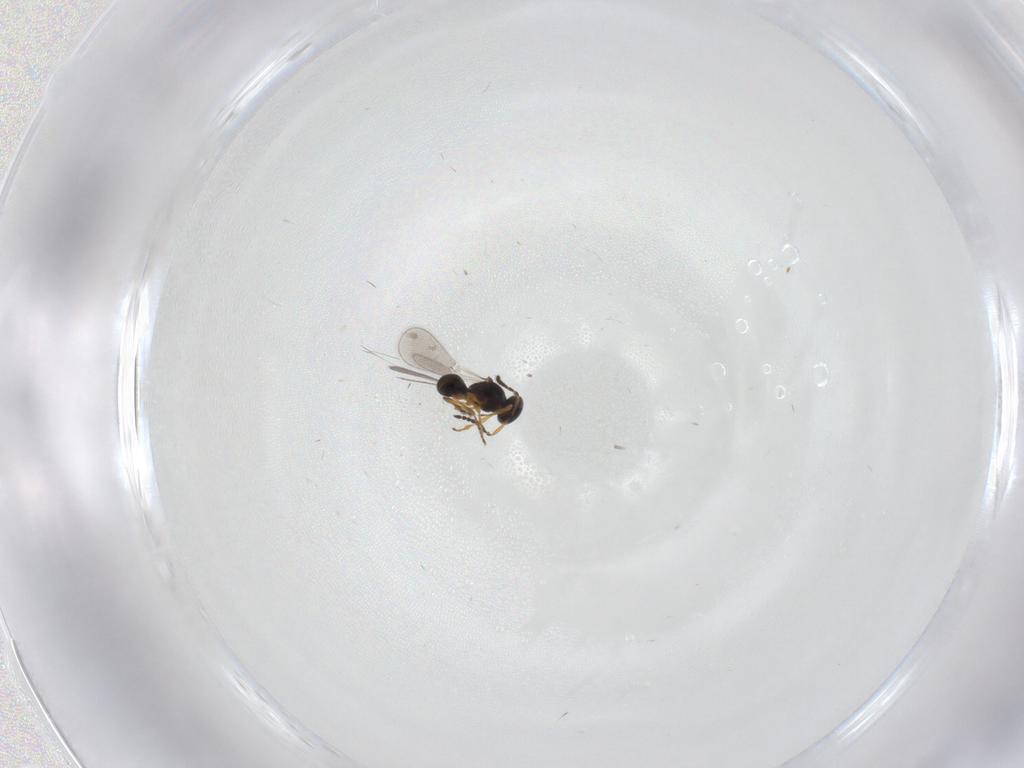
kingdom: Animalia
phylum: Arthropoda
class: Insecta
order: Hymenoptera
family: Platygastridae
